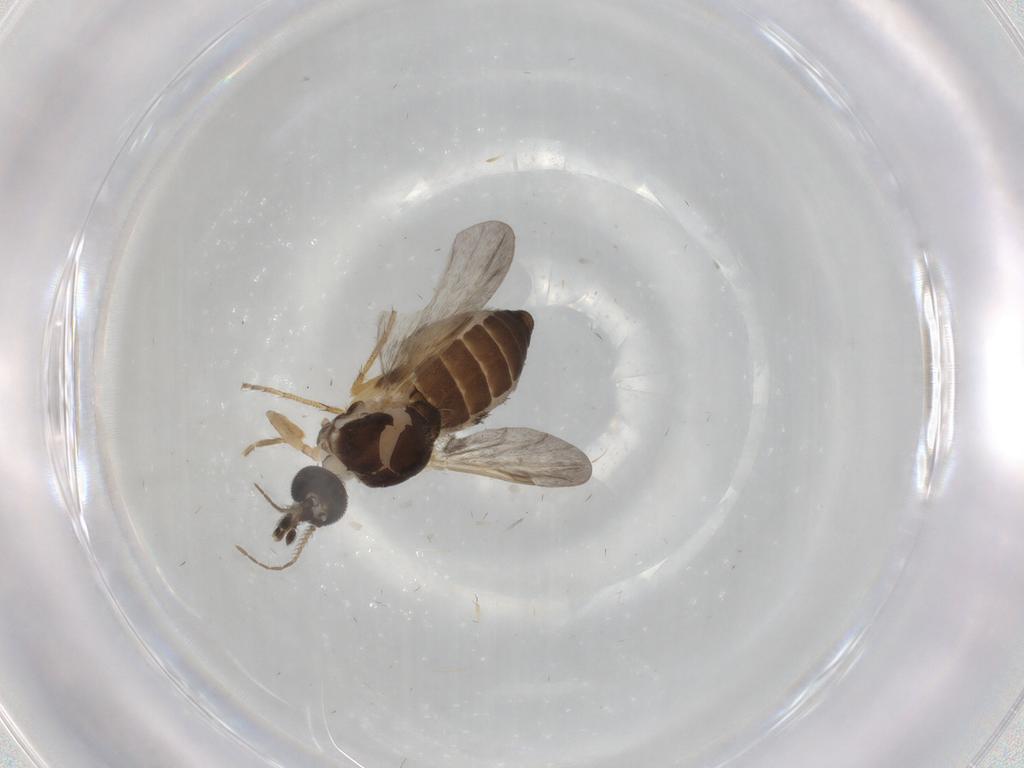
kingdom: Animalia
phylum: Arthropoda
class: Insecta
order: Diptera
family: Ceratopogonidae
